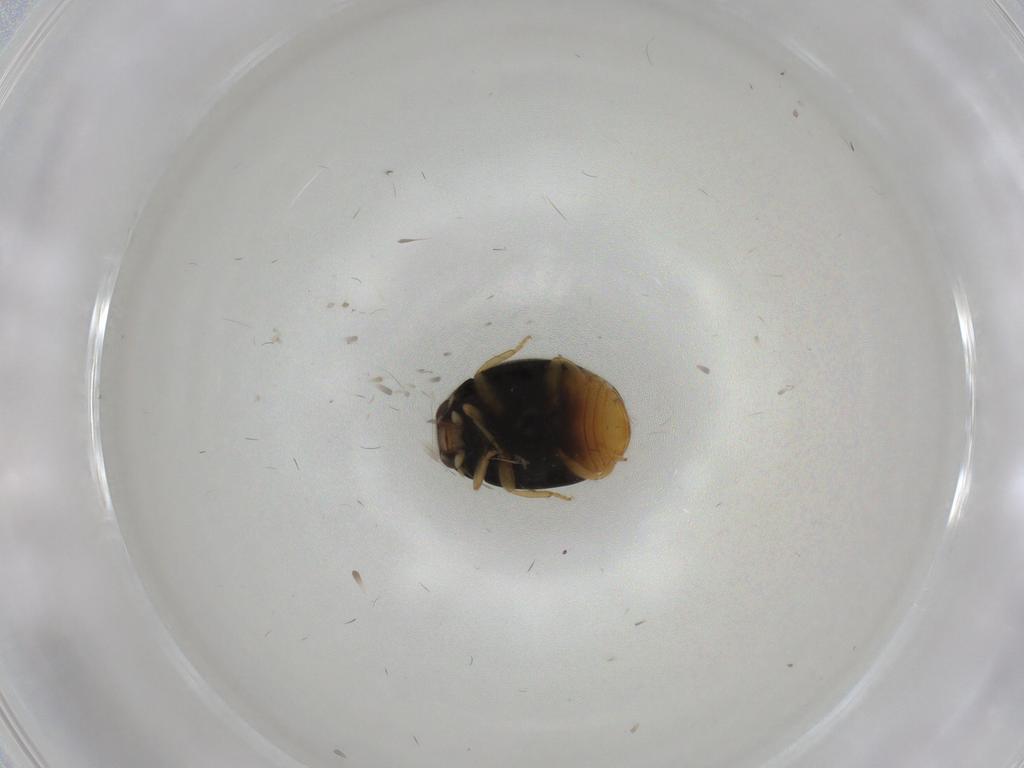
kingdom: Animalia
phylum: Arthropoda
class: Insecta
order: Coleoptera
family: Coccinellidae
